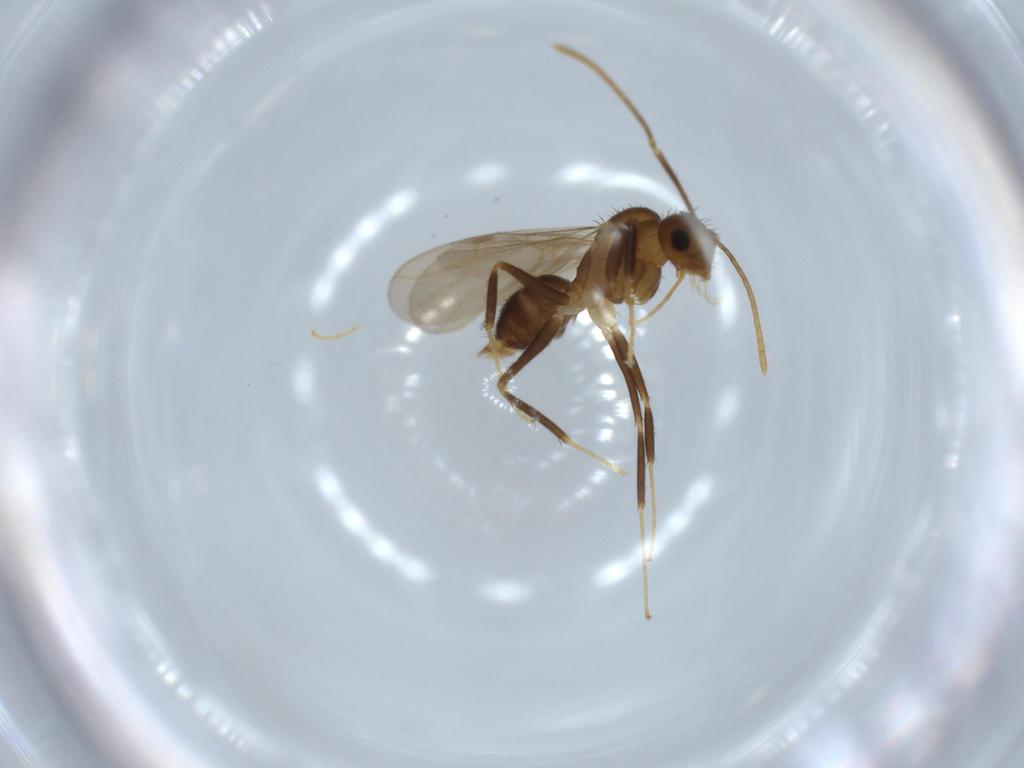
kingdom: Animalia
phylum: Arthropoda
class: Insecta
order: Hymenoptera
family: Formicidae
